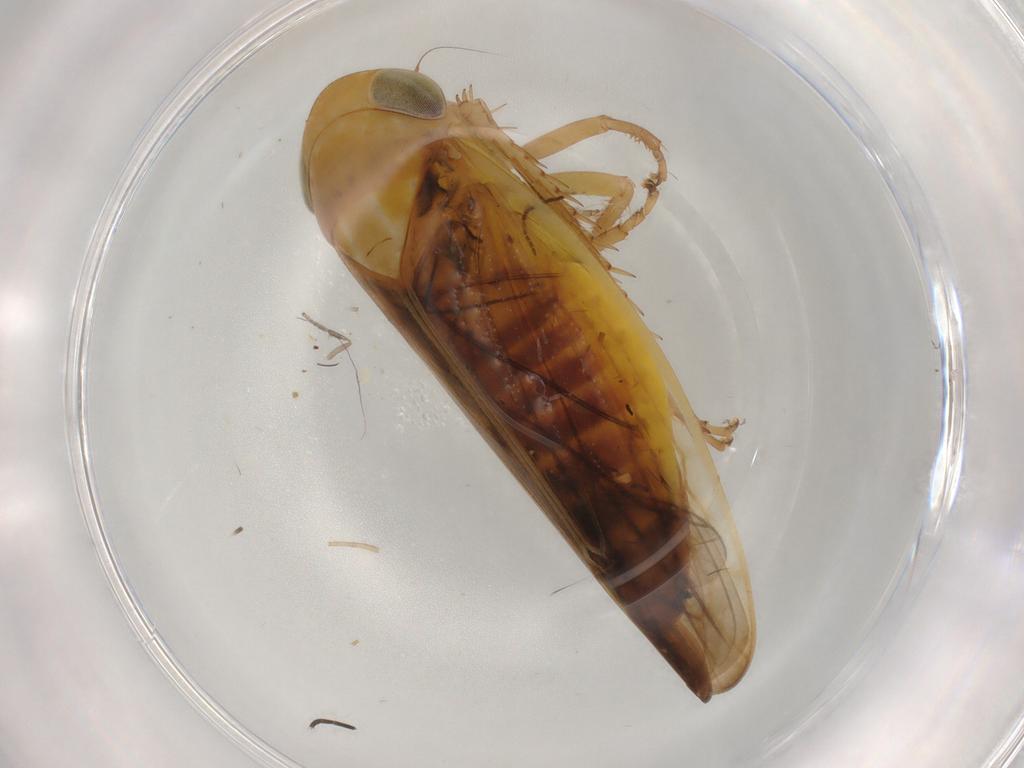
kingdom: Animalia
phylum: Arthropoda
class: Insecta
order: Hemiptera
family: Cicadellidae
